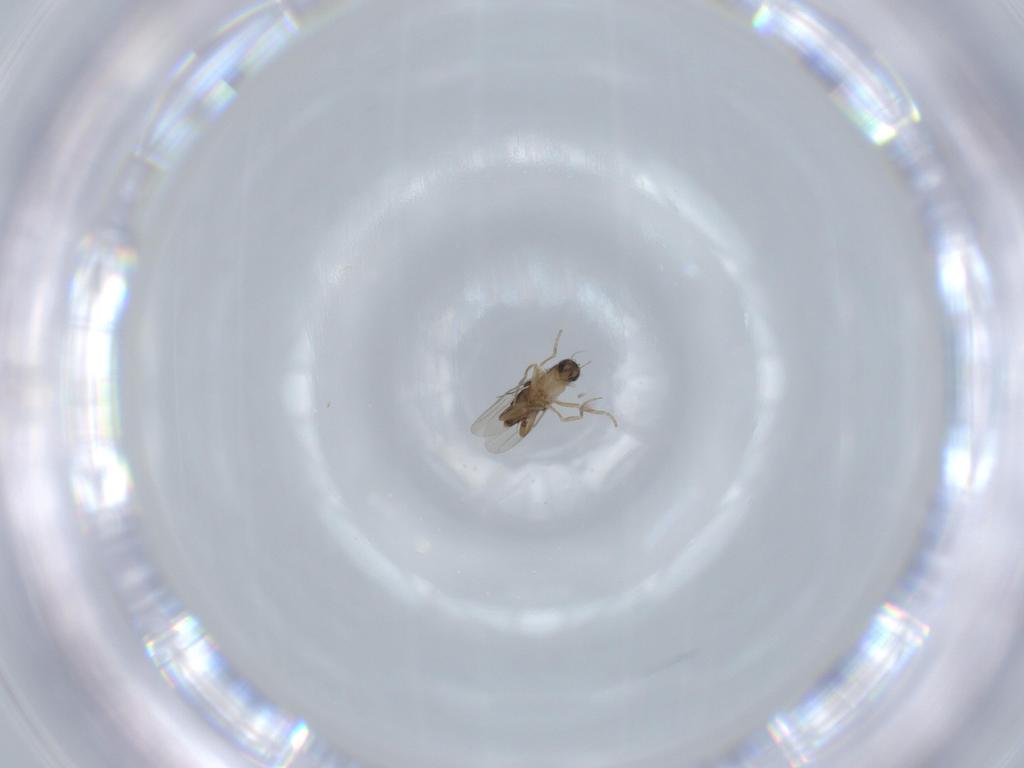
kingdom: Animalia
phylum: Arthropoda
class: Insecta
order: Diptera
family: Phoridae
